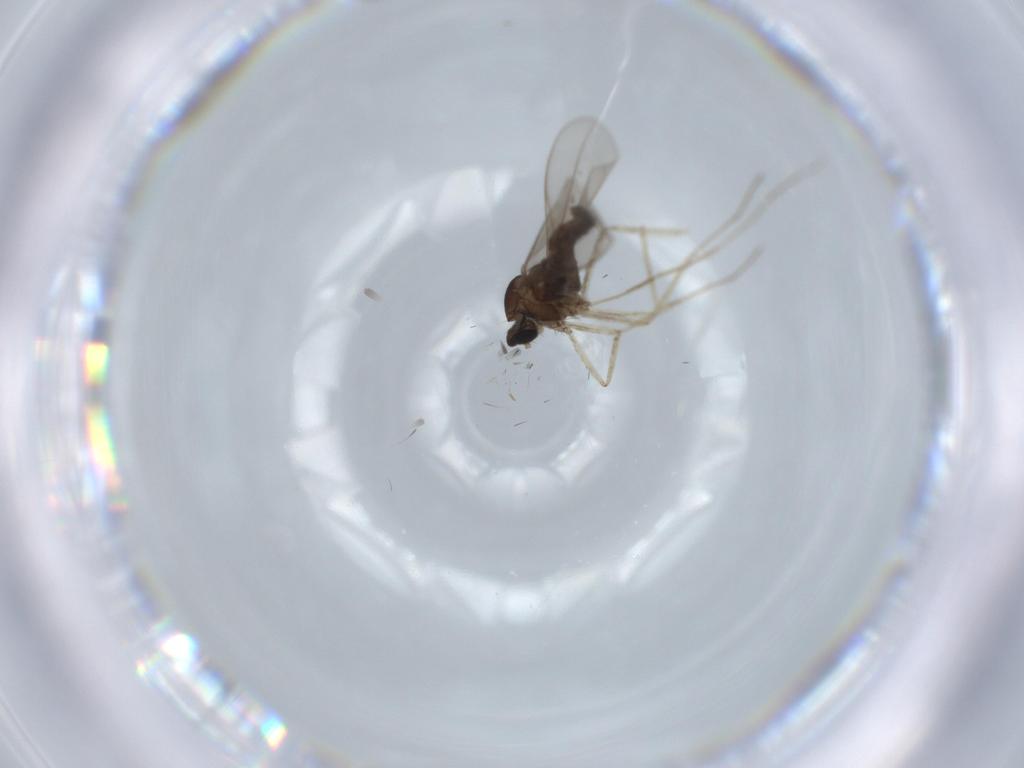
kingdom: Animalia
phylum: Arthropoda
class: Insecta
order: Diptera
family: Cecidomyiidae
